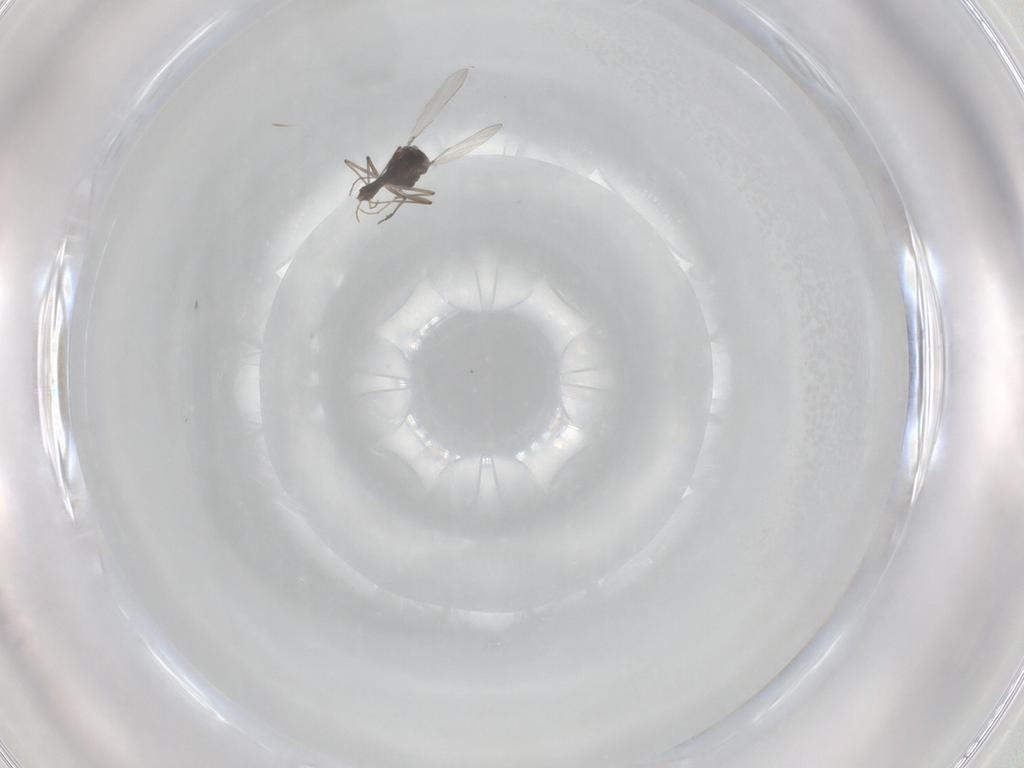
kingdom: Animalia
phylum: Arthropoda
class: Insecta
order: Diptera
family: Chironomidae
